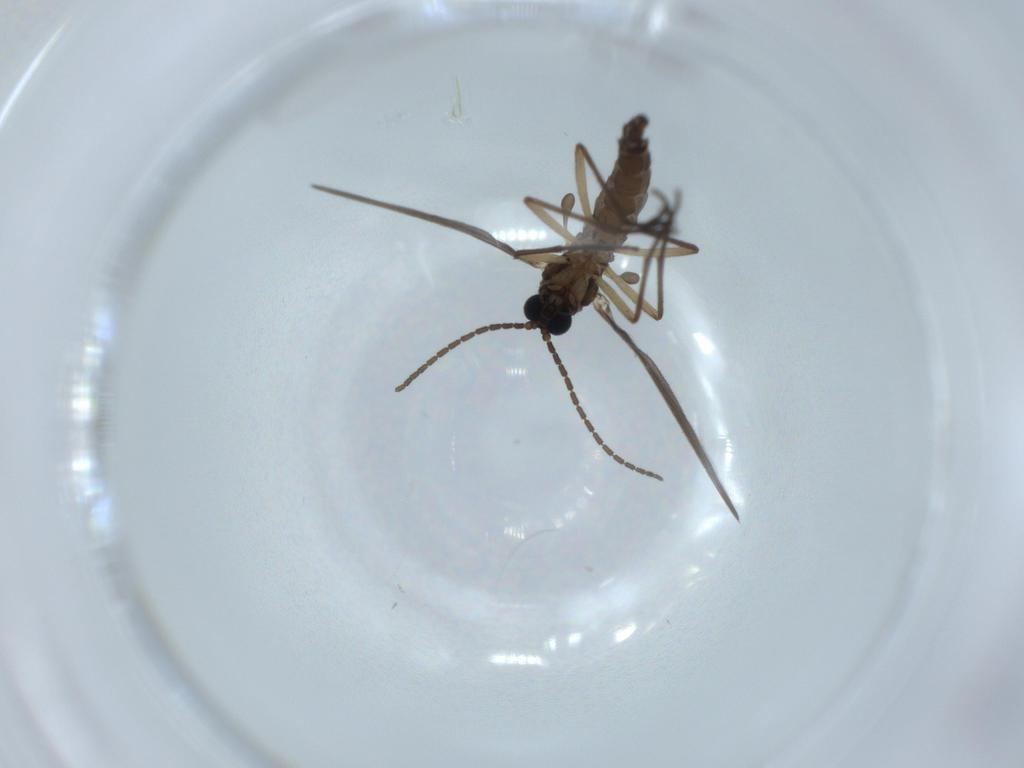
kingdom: Animalia
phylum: Arthropoda
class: Insecta
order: Diptera
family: Sciaridae
